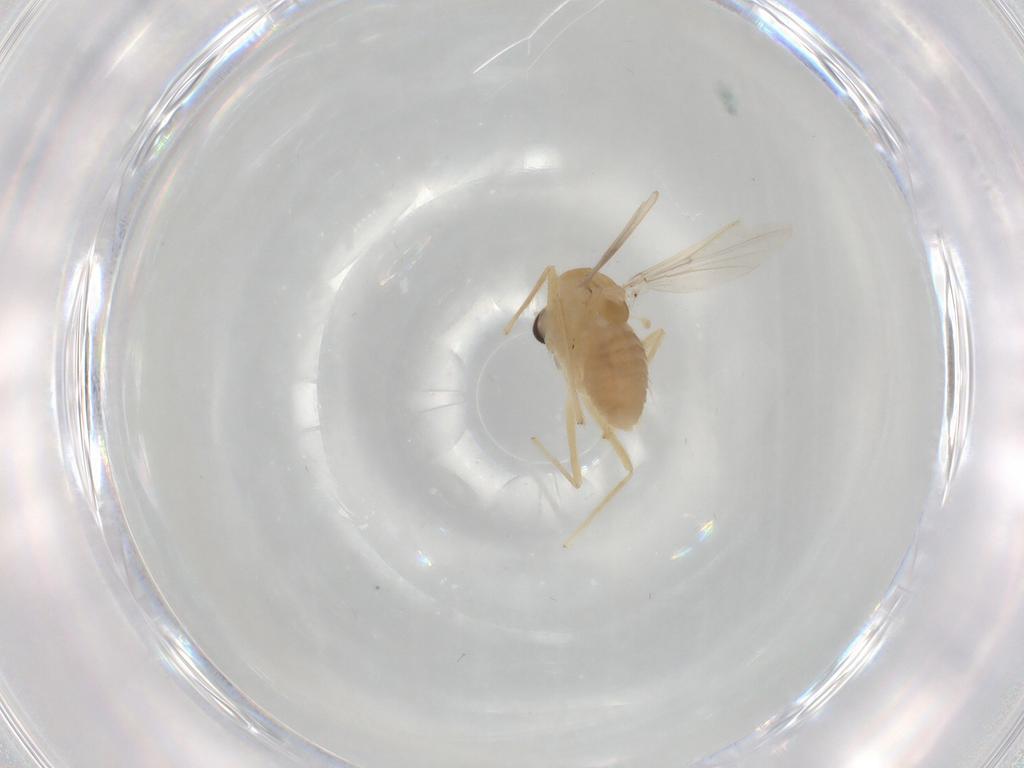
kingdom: Animalia
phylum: Arthropoda
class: Insecta
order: Diptera
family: Chironomidae
